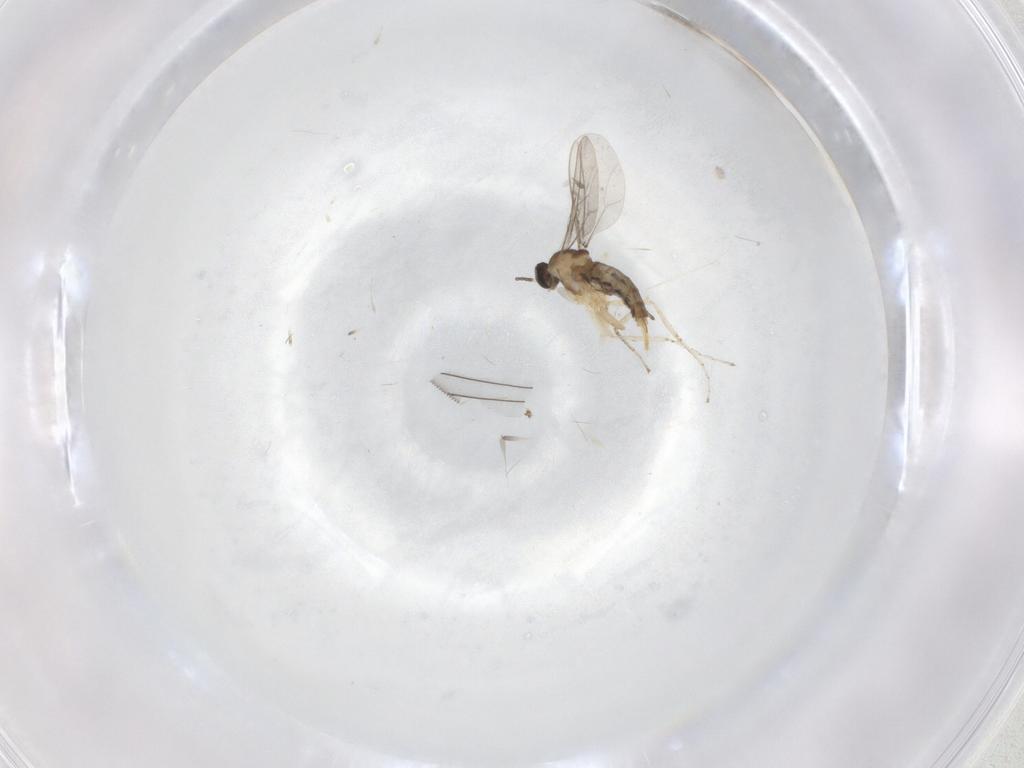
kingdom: Animalia
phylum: Arthropoda
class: Insecta
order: Diptera
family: Cecidomyiidae
